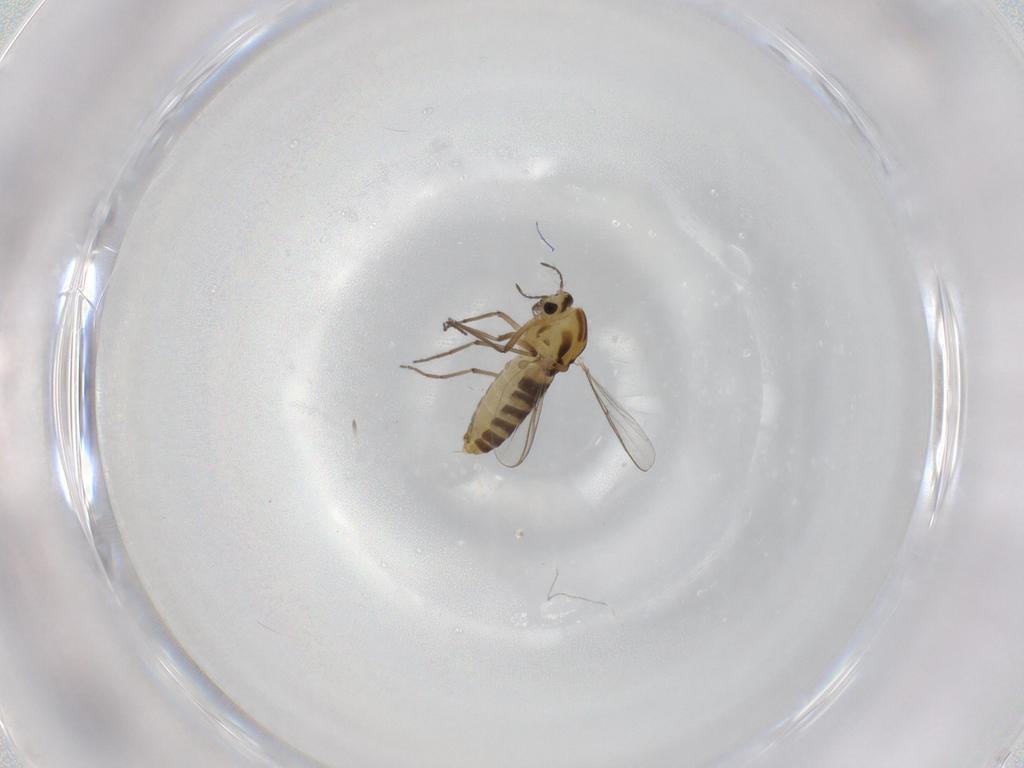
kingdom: Animalia
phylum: Arthropoda
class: Insecta
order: Diptera
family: Chironomidae
